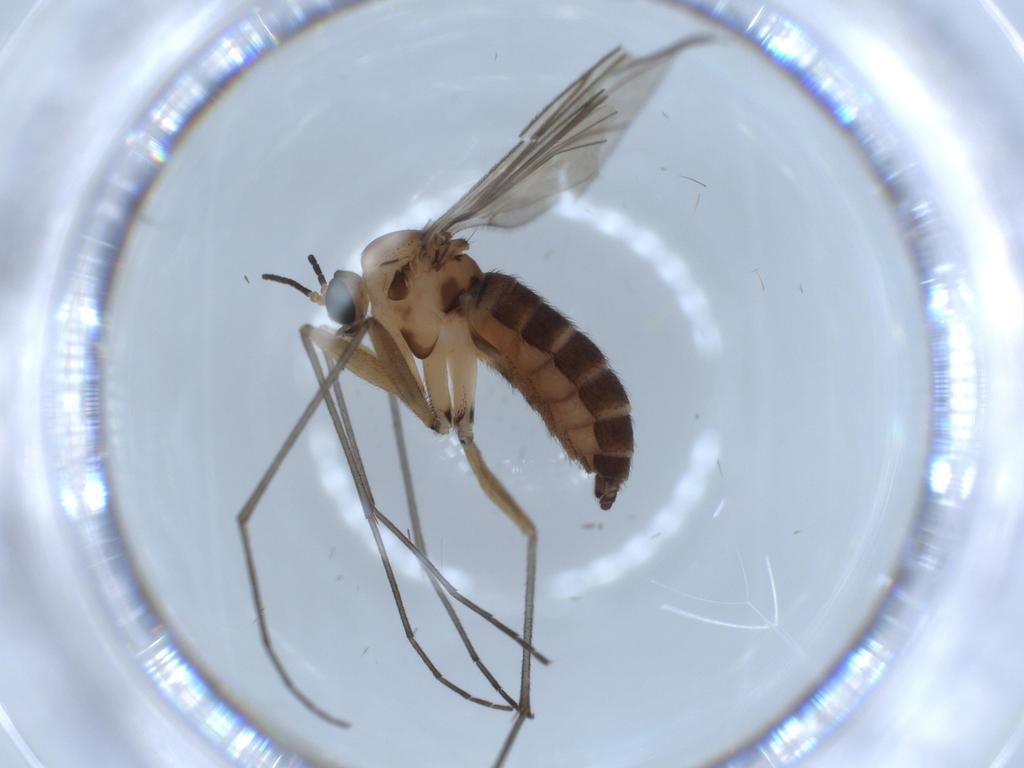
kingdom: Animalia
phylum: Arthropoda
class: Insecta
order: Diptera
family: Sciaridae
